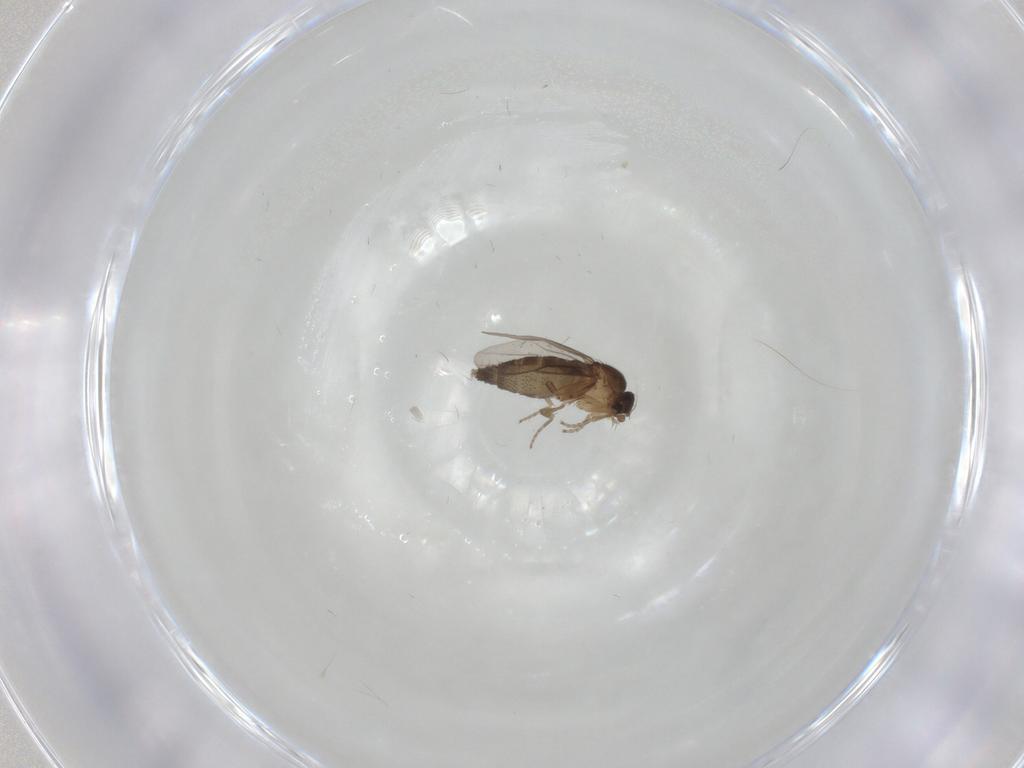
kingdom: Animalia
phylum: Arthropoda
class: Insecta
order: Diptera
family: Phoridae
